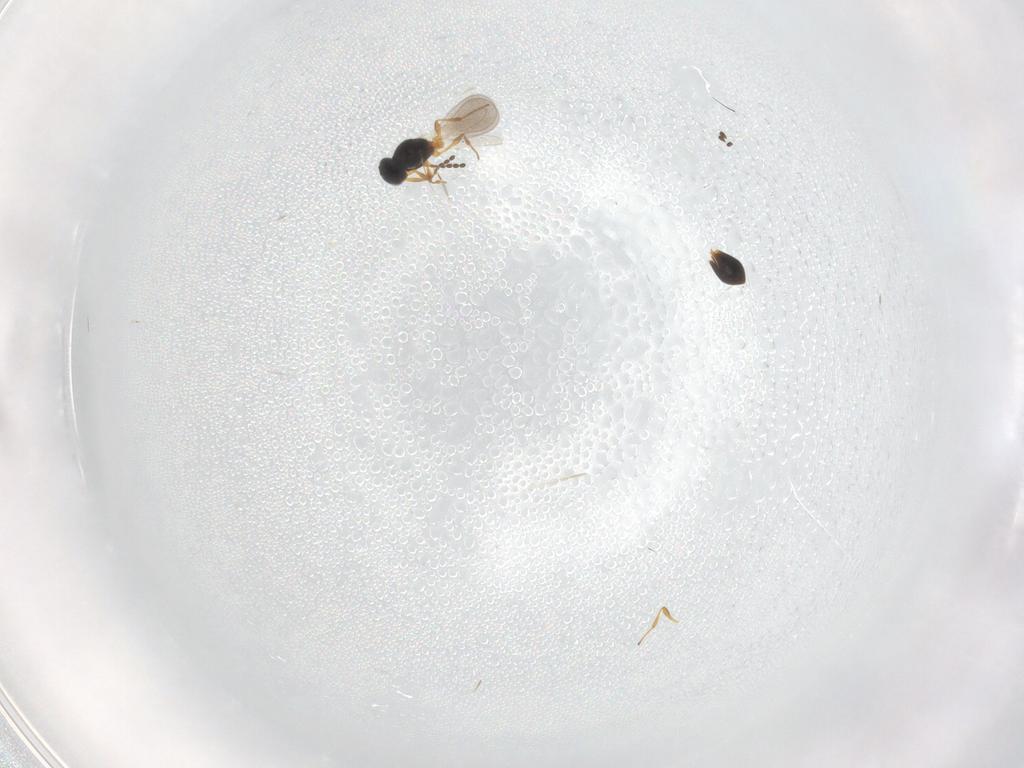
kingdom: Animalia
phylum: Arthropoda
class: Insecta
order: Hymenoptera
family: Platygastridae
